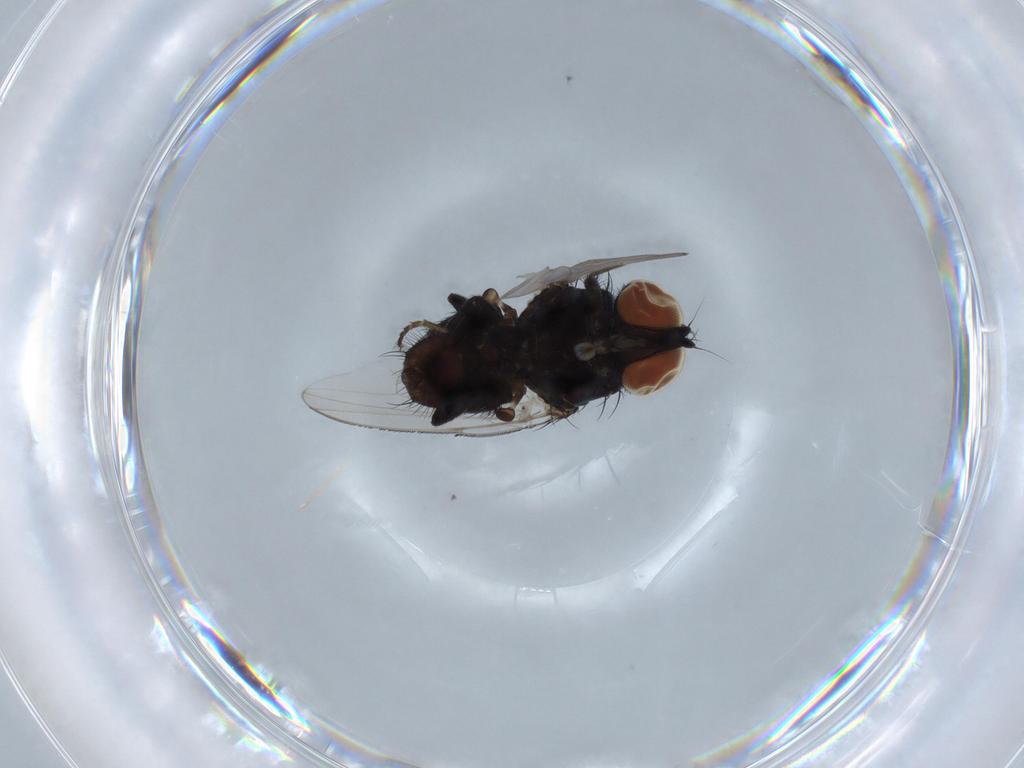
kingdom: Animalia
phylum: Arthropoda
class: Insecta
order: Diptera
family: Milichiidae
